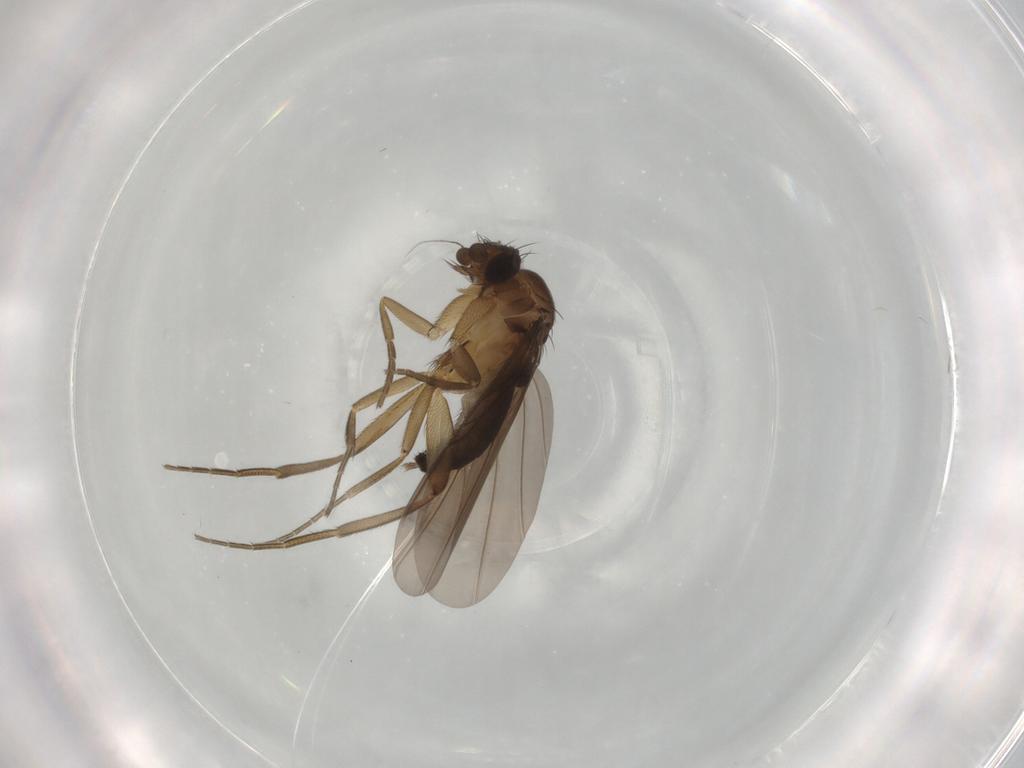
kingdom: Animalia
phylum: Arthropoda
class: Insecta
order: Diptera
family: Phoridae
